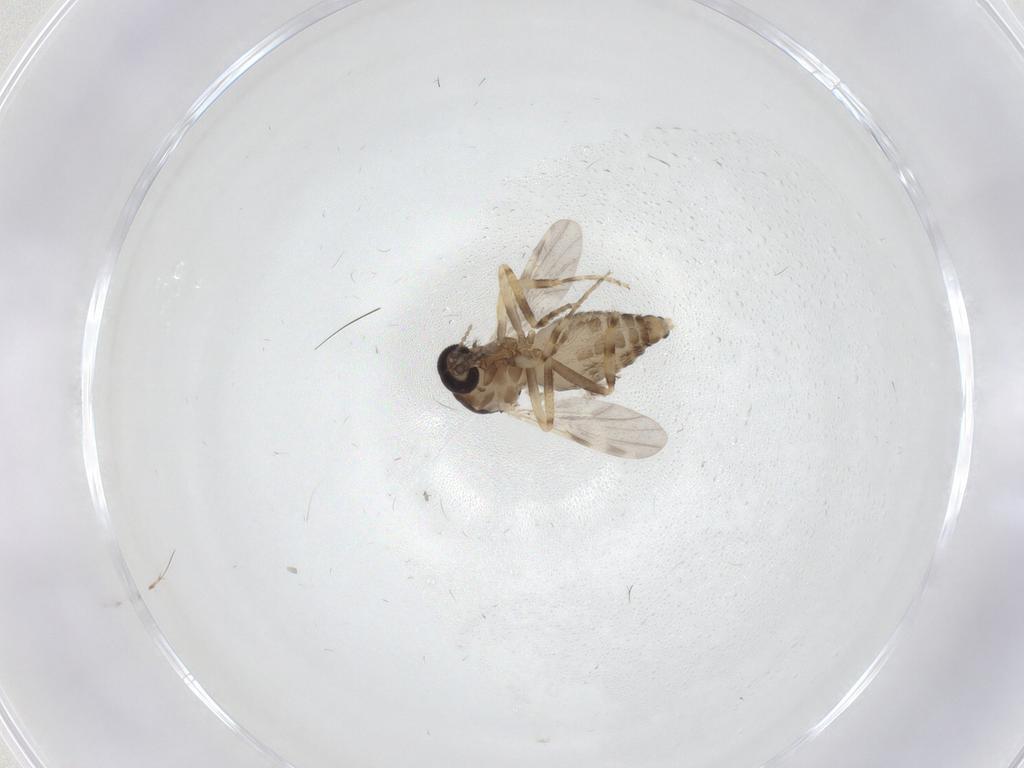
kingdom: Animalia
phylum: Arthropoda
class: Insecta
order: Diptera
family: Ceratopogonidae
